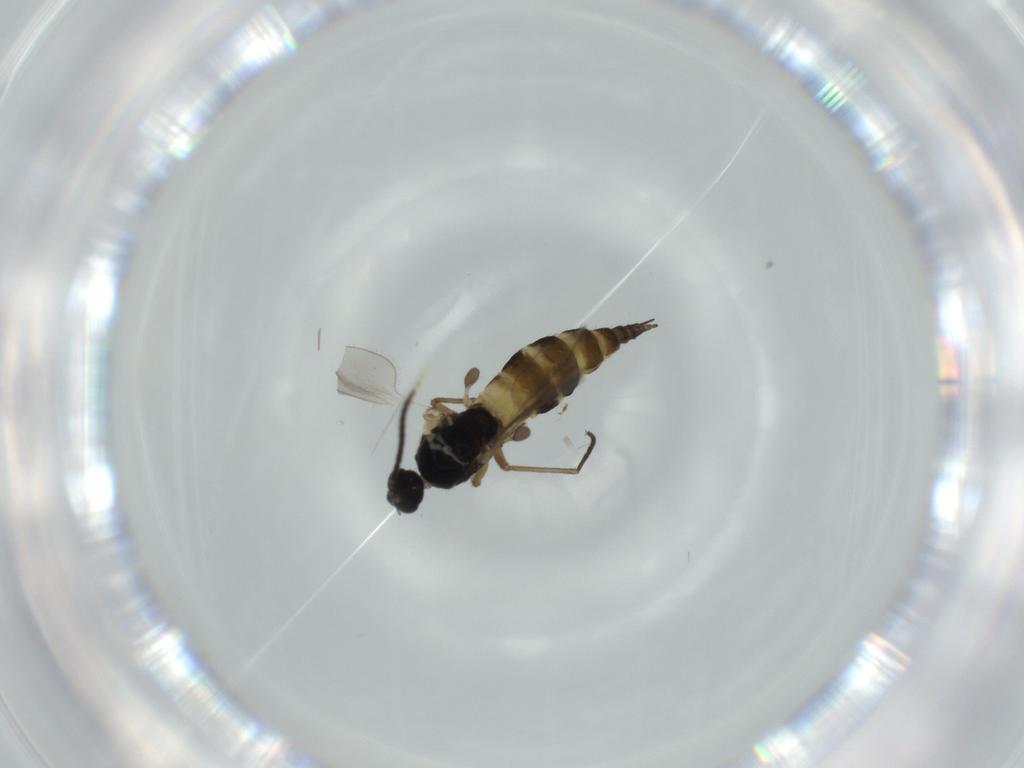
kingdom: Animalia
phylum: Arthropoda
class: Insecta
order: Diptera
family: Sciaridae
